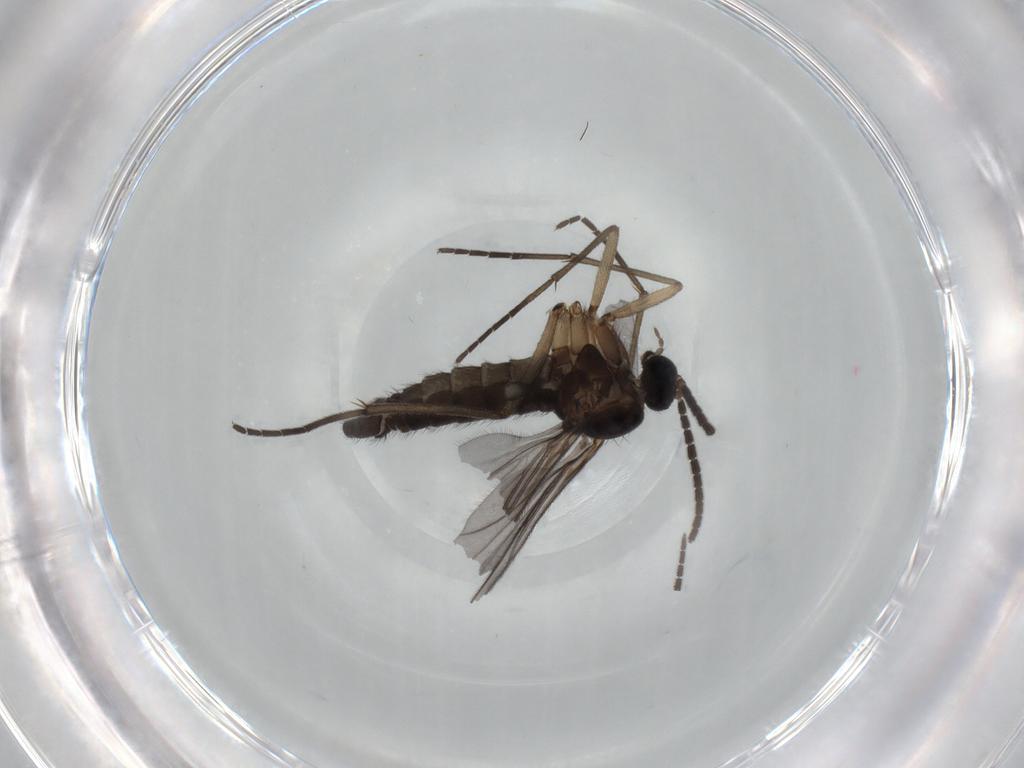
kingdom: Animalia
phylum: Arthropoda
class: Insecta
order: Diptera
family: Sciaridae
